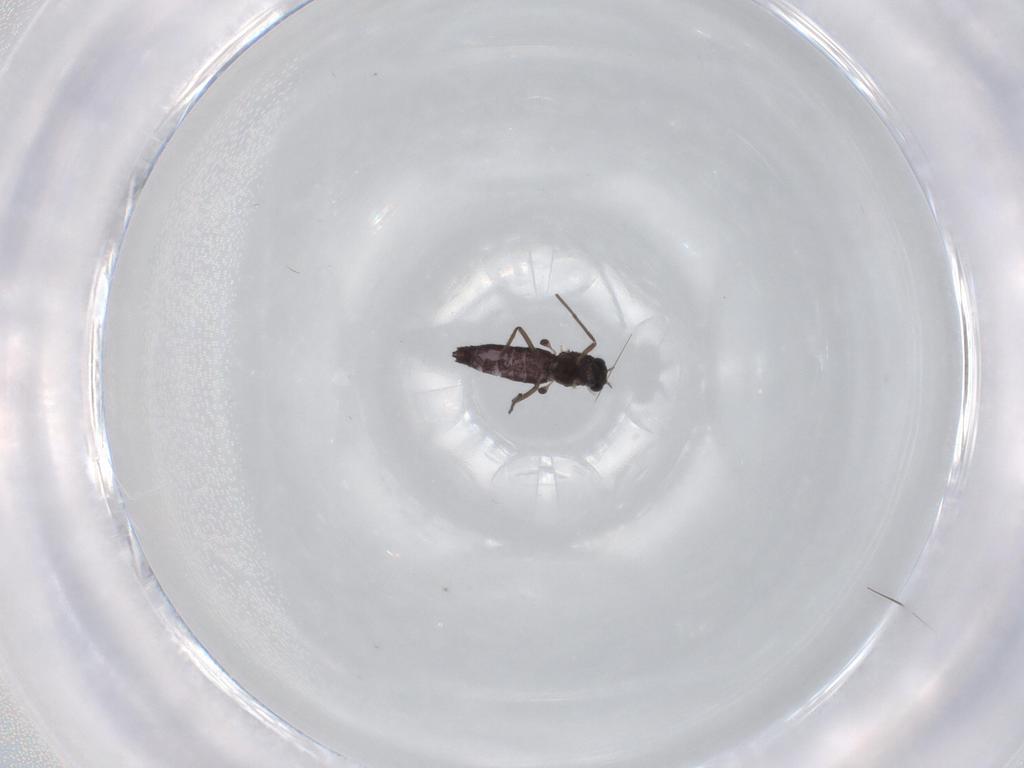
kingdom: Animalia
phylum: Arthropoda
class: Insecta
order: Diptera
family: Chironomidae
